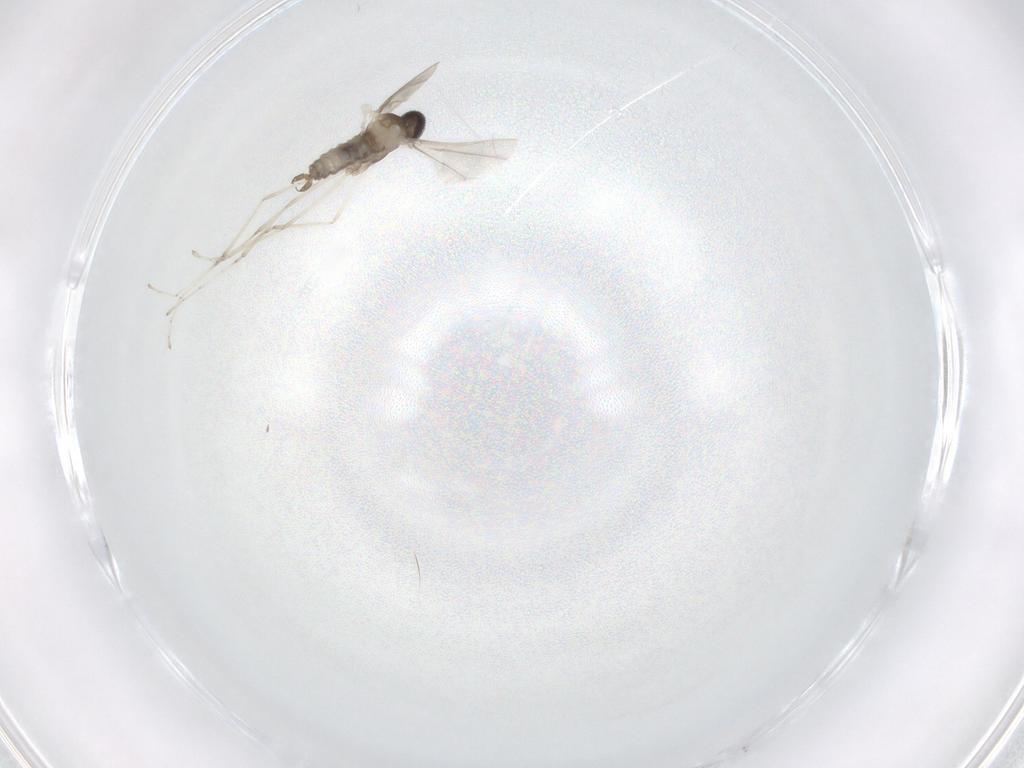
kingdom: Animalia
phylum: Arthropoda
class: Insecta
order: Diptera
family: Cecidomyiidae
